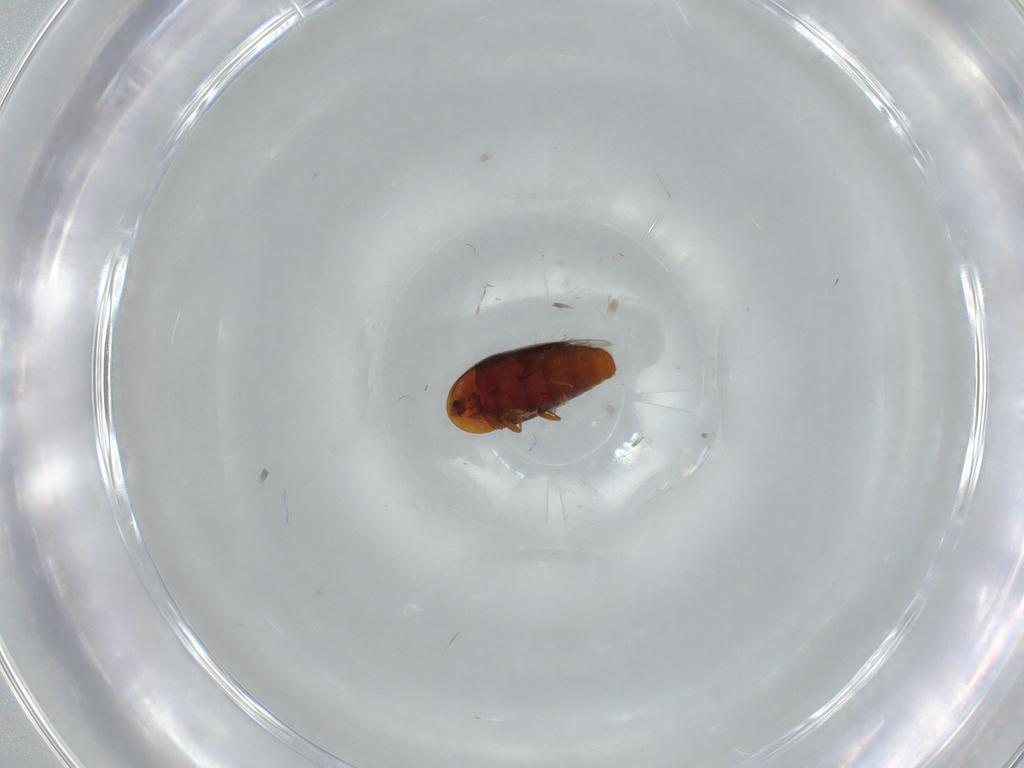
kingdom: Animalia
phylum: Arthropoda
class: Insecta
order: Coleoptera
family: Corylophidae
